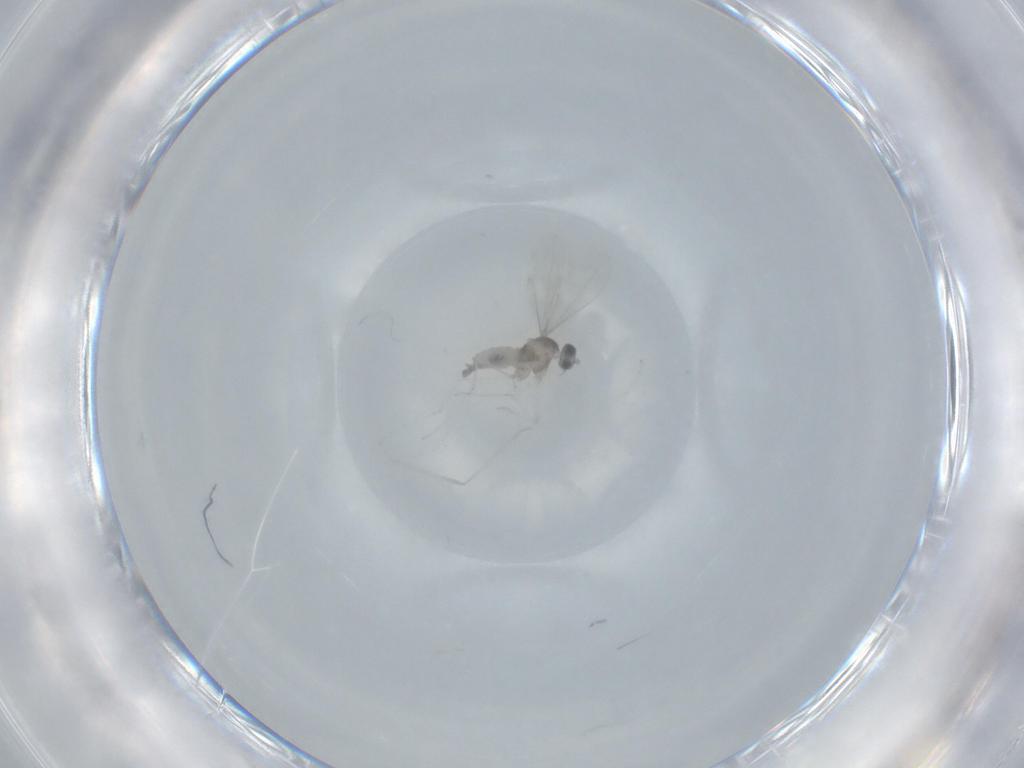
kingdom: Animalia
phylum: Arthropoda
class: Insecta
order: Diptera
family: Cecidomyiidae
